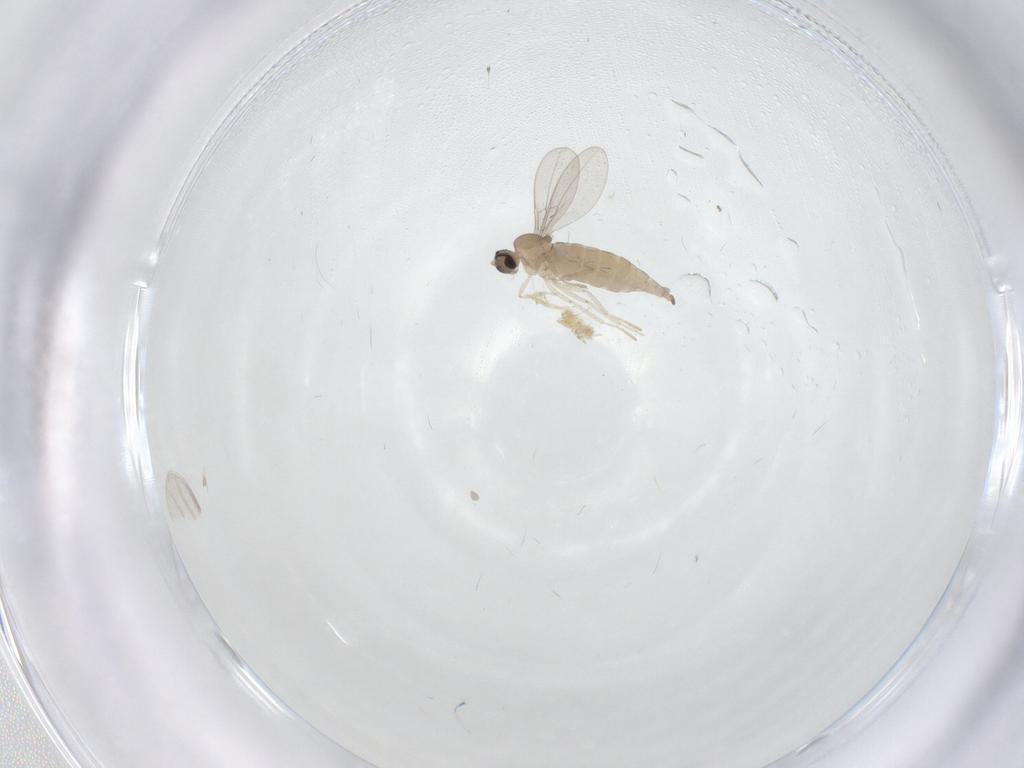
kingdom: Animalia
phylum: Arthropoda
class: Insecta
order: Diptera
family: Cecidomyiidae
